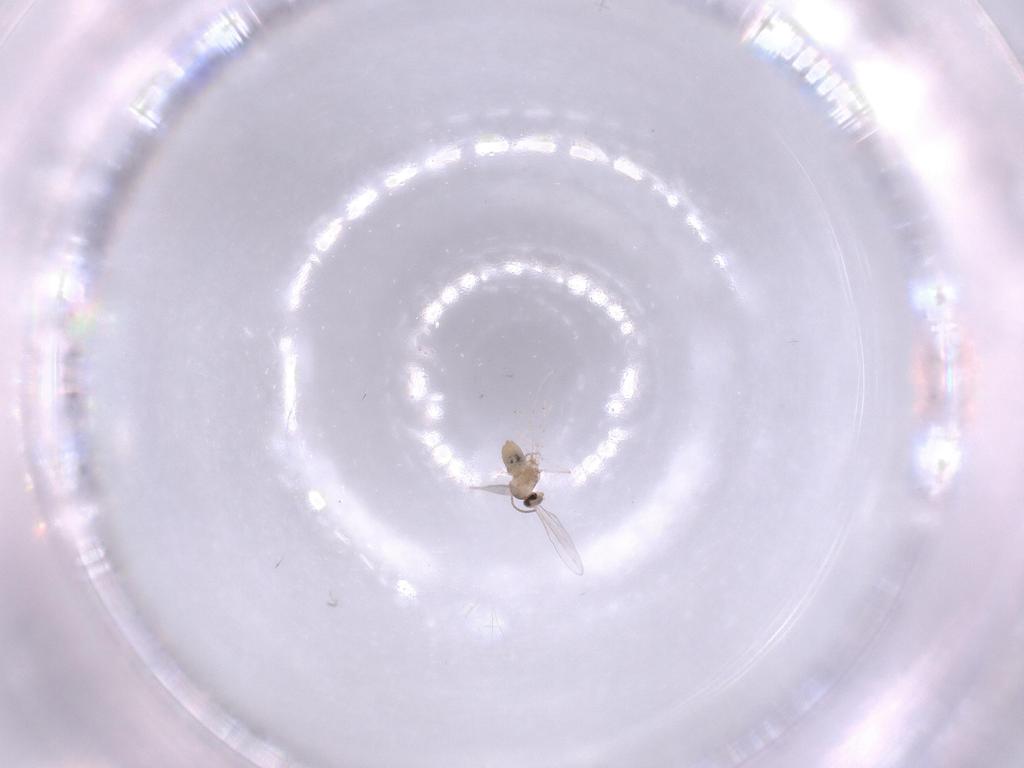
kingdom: Animalia
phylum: Arthropoda
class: Insecta
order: Diptera
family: Cecidomyiidae
